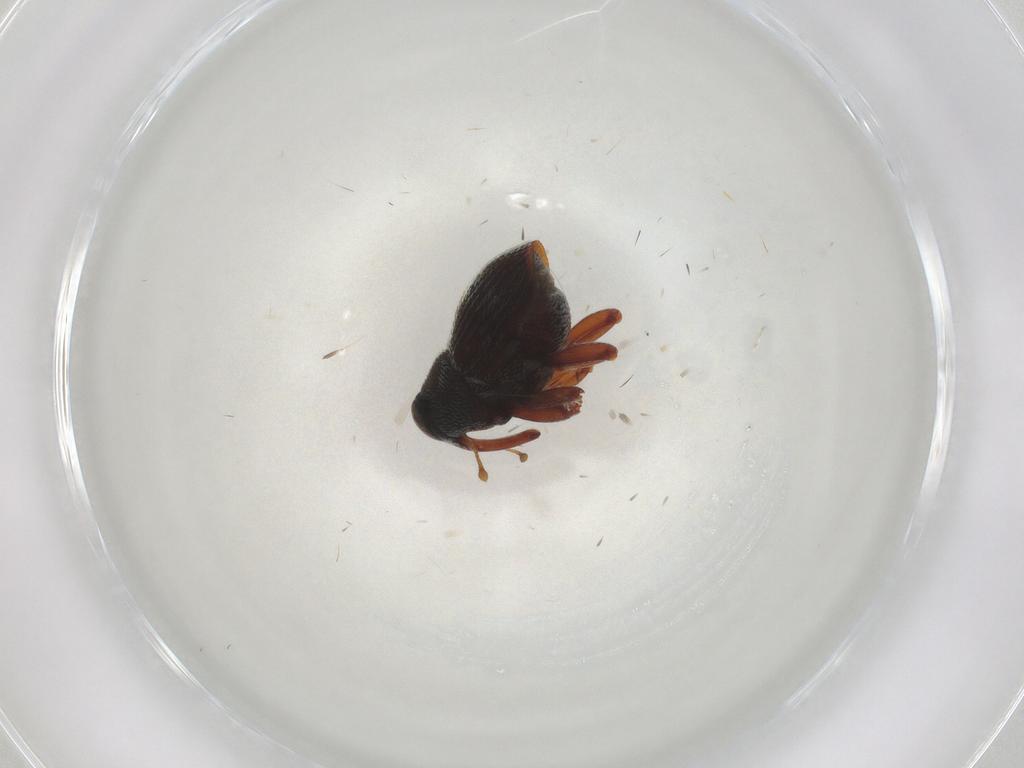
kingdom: Animalia
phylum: Arthropoda
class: Insecta
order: Coleoptera
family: Curculionidae
